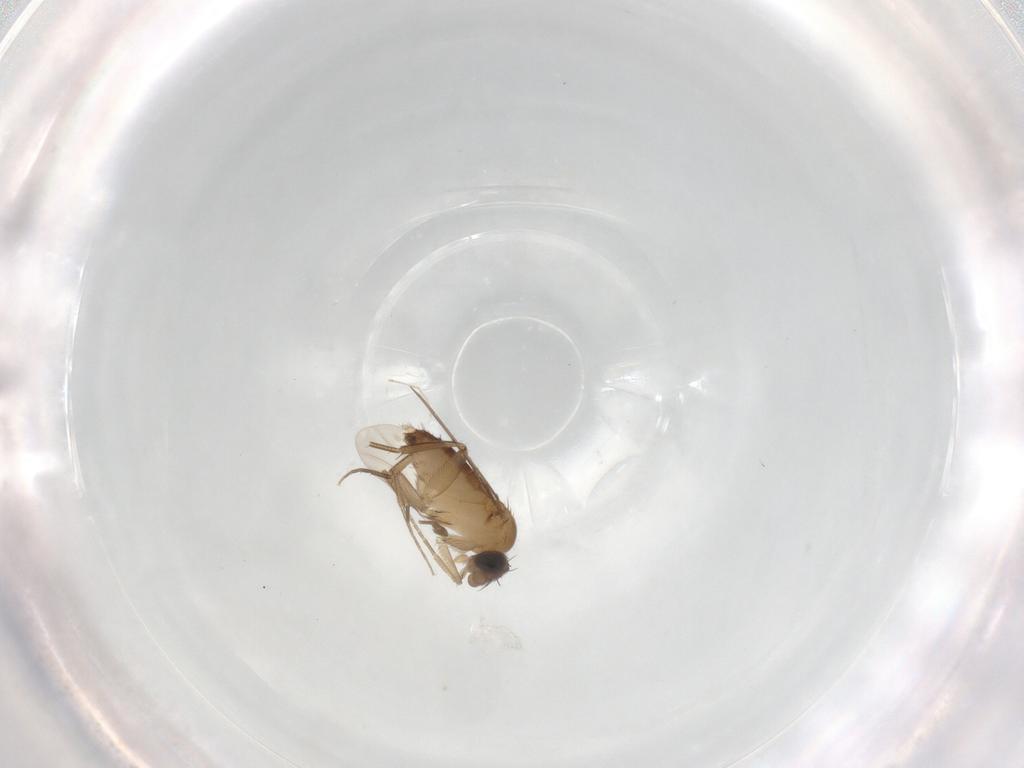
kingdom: Animalia
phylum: Arthropoda
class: Insecta
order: Diptera
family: Phoridae
